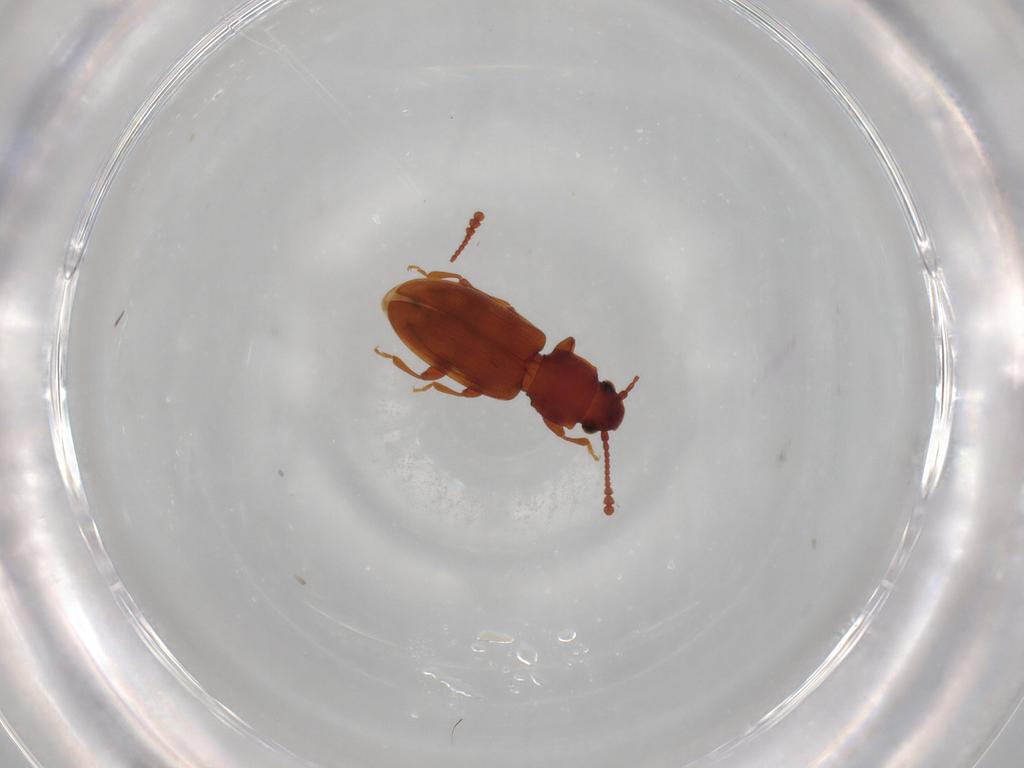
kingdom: Animalia
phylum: Arthropoda
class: Insecta
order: Coleoptera
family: Silvanidae
